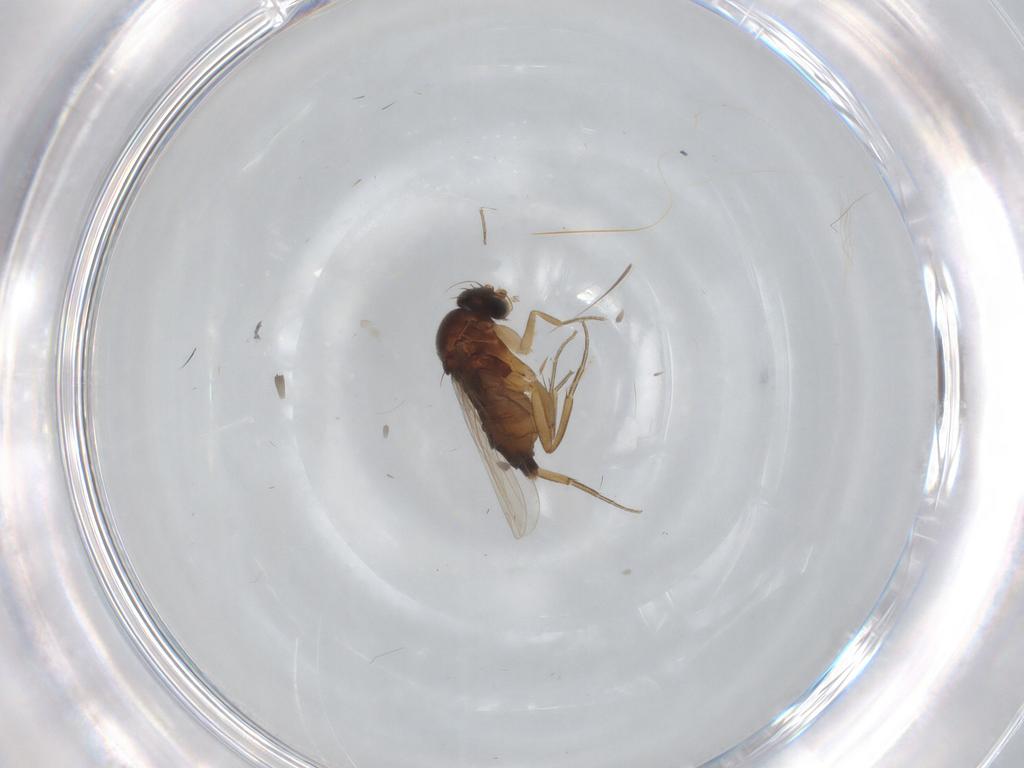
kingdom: Animalia
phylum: Arthropoda
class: Insecta
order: Diptera
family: Phoridae
